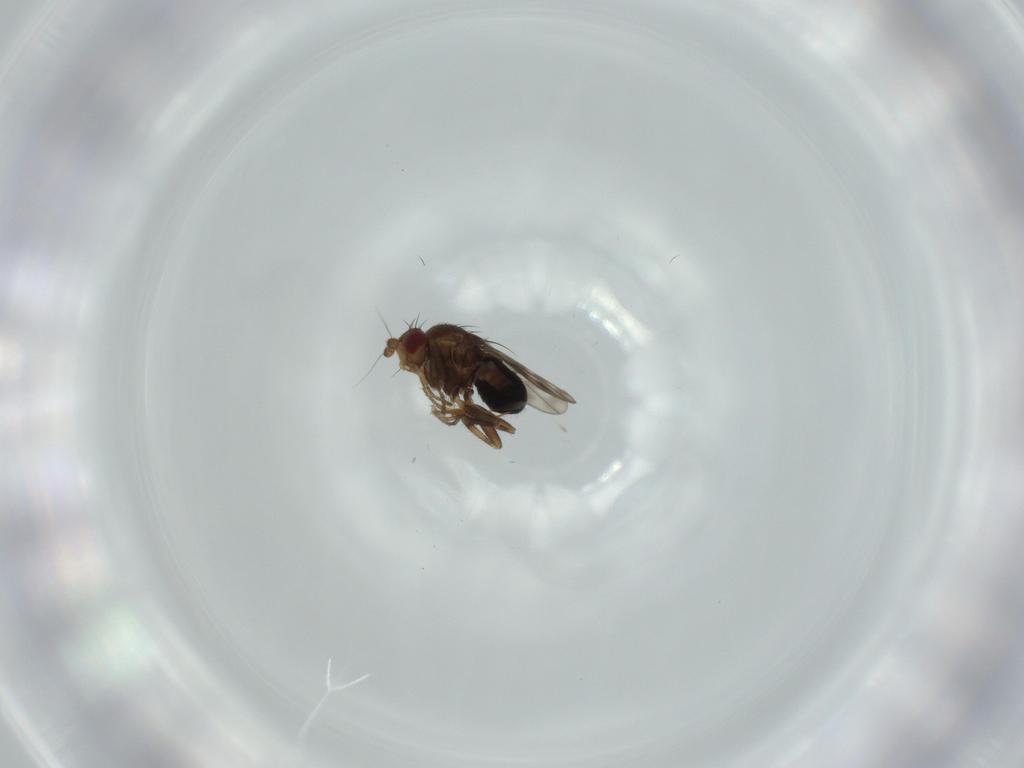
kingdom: Animalia
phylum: Arthropoda
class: Insecta
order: Diptera
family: Sphaeroceridae
